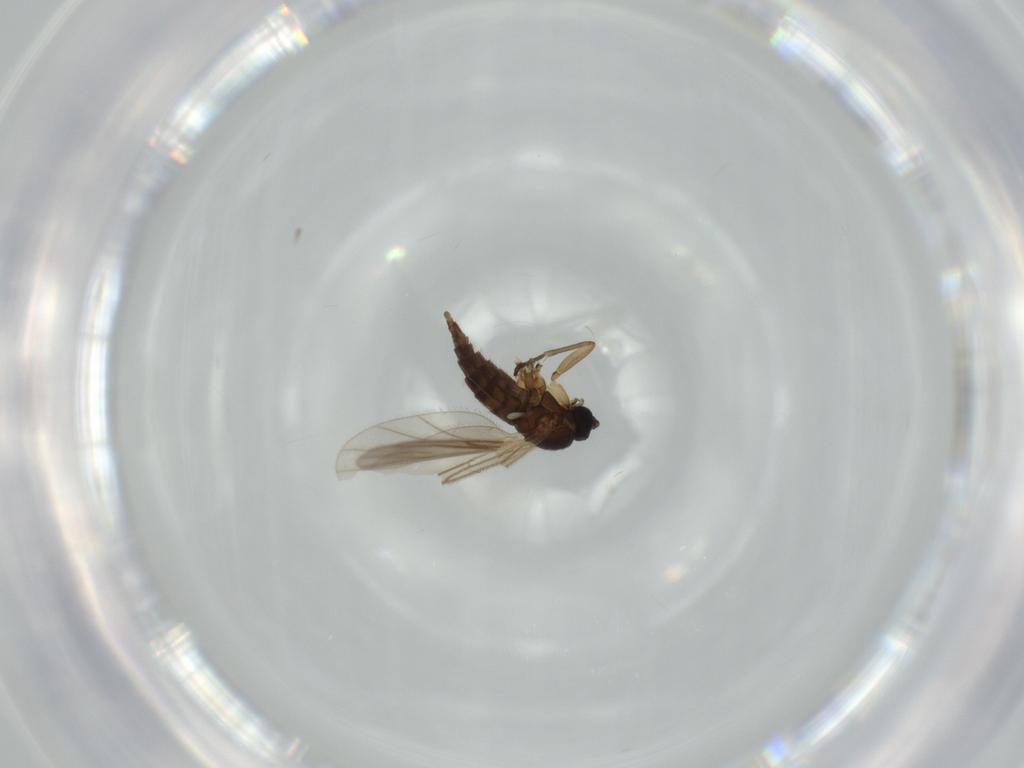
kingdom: Animalia
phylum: Arthropoda
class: Insecta
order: Diptera
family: Sciaridae
